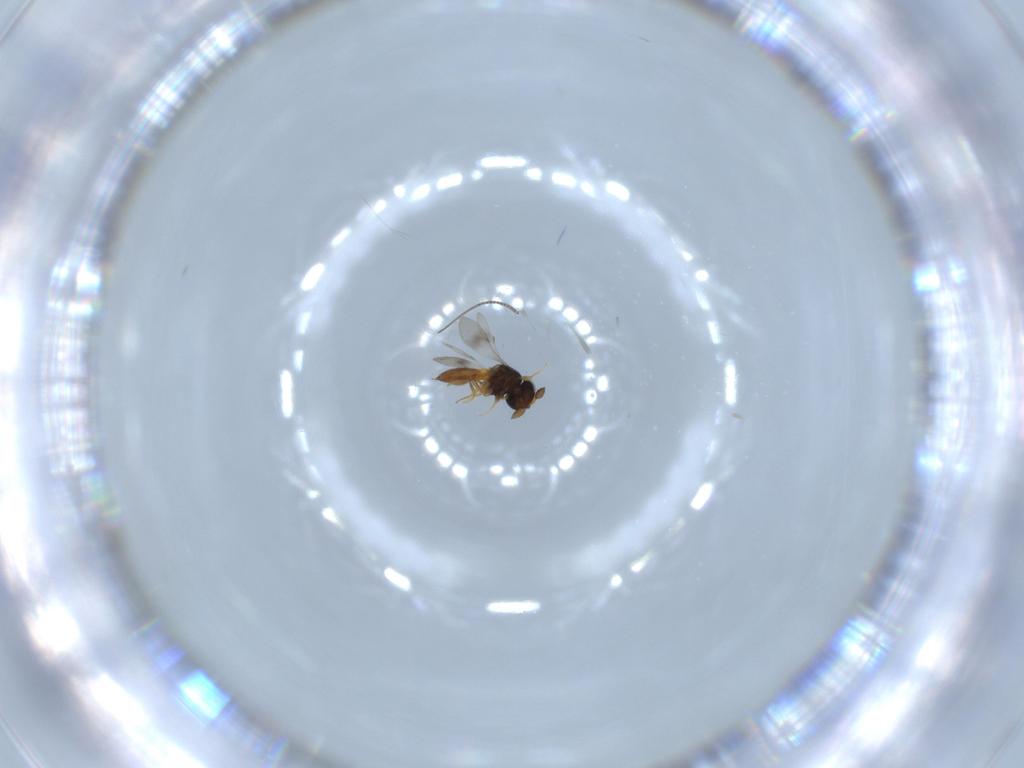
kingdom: Animalia
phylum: Arthropoda
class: Insecta
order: Hymenoptera
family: Scelionidae
